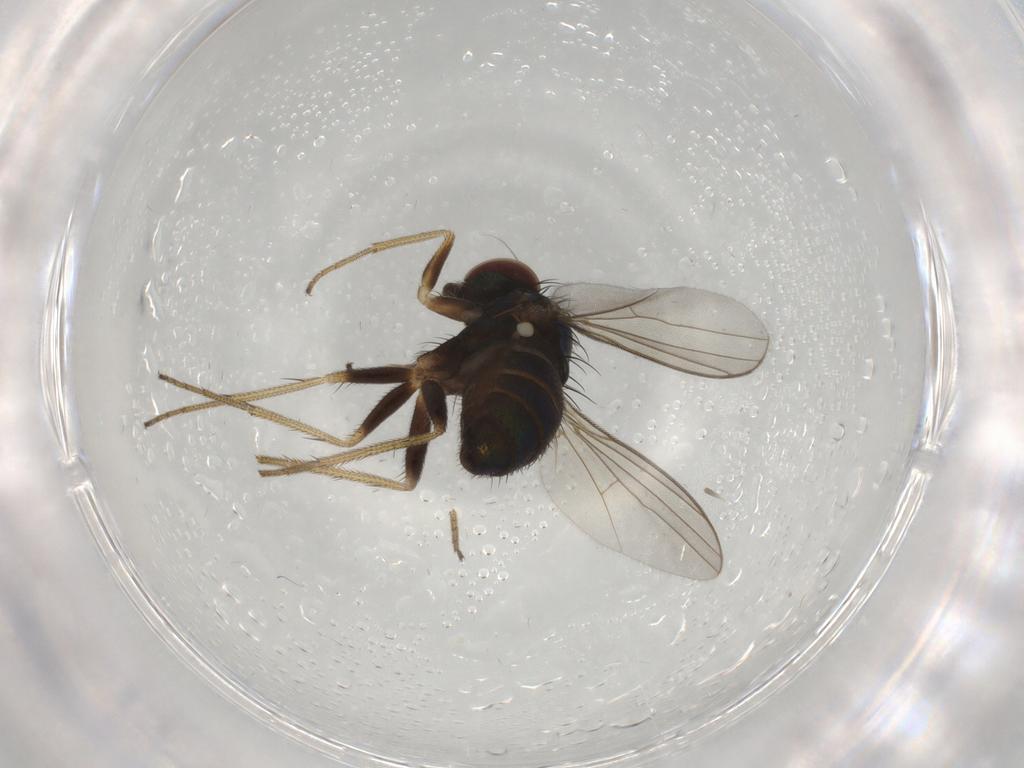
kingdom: Animalia
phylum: Arthropoda
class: Insecta
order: Diptera
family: Dolichopodidae
